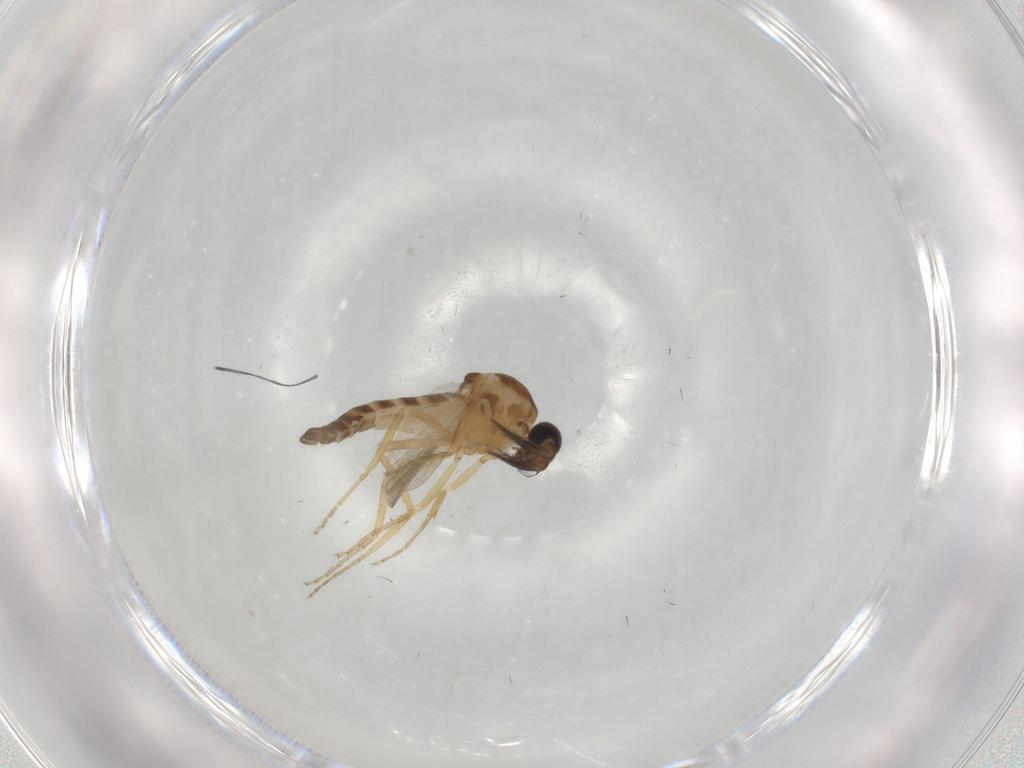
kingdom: Animalia
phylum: Arthropoda
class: Insecta
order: Diptera
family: Ceratopogonidae
